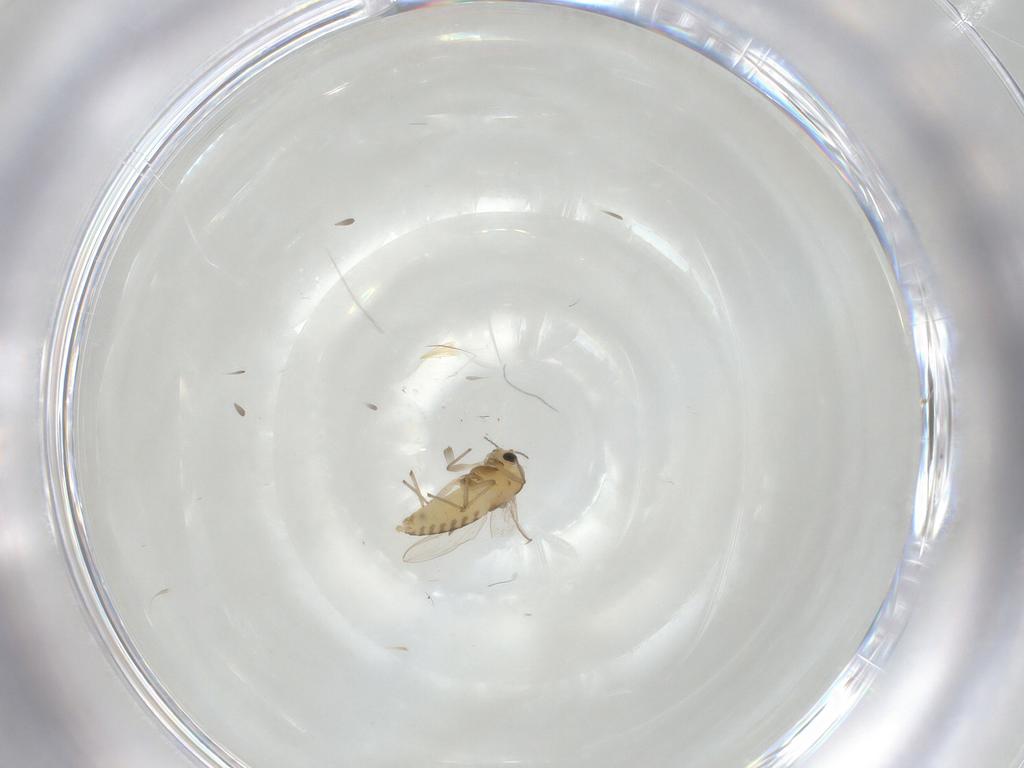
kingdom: Animalia
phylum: Arthropoda
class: Insecta
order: Diptera
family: Chironomidae
